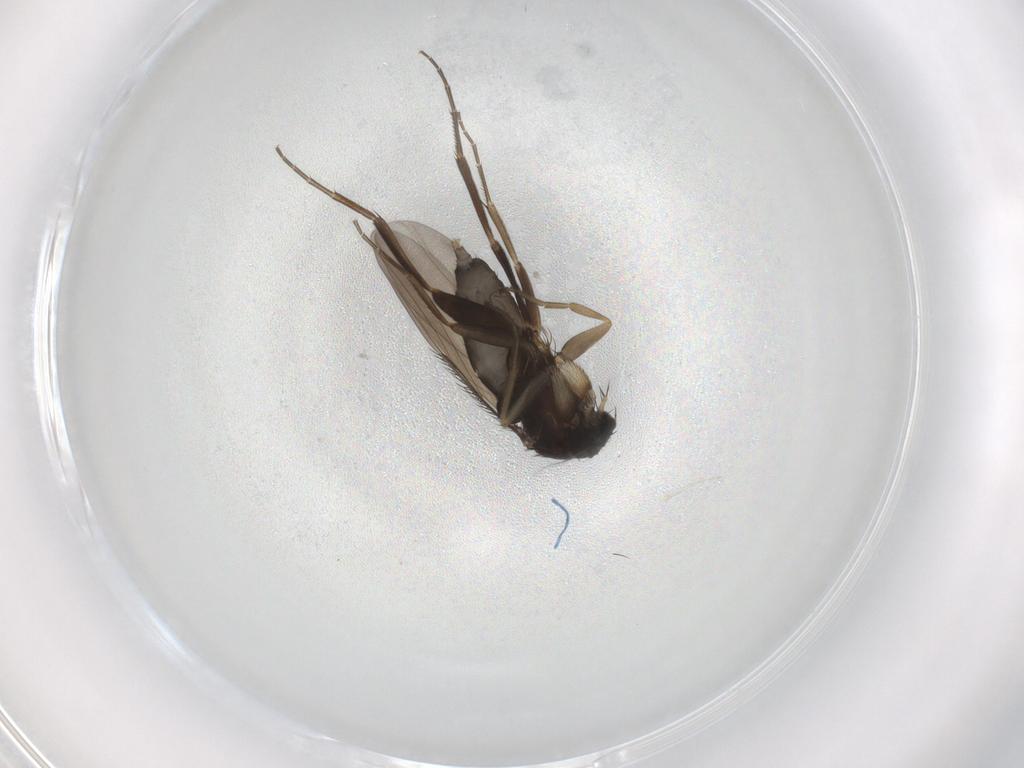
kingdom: Animalia
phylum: Arthropoda
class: Insecta
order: Diptera
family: Phoridae
